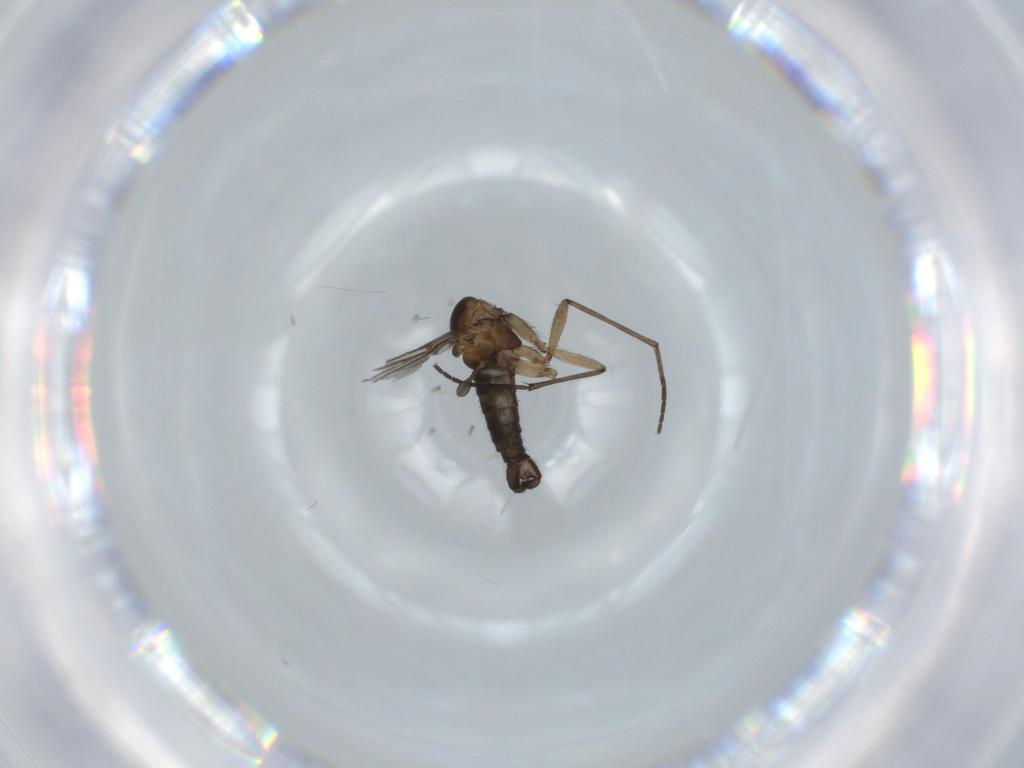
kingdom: Animalia
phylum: Arthropoda
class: Insecta
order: Diptera
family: Sciaridae
